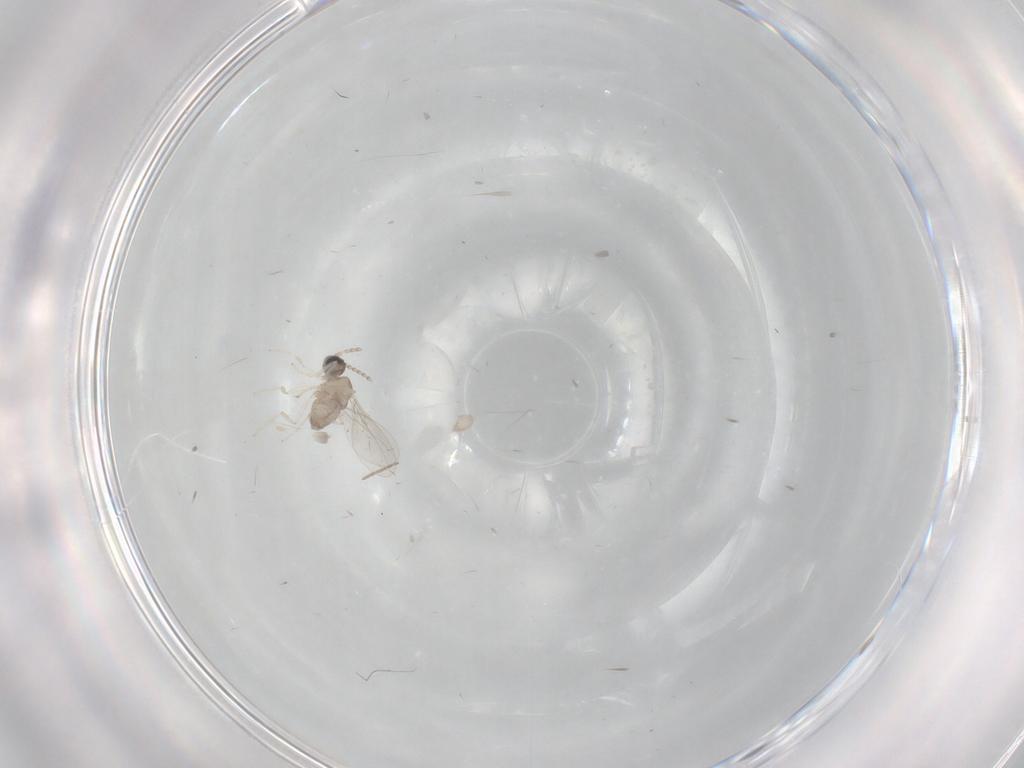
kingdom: Animalia
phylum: Arthropoda
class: Insecta
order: Diptera
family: Cecidomyiidae
